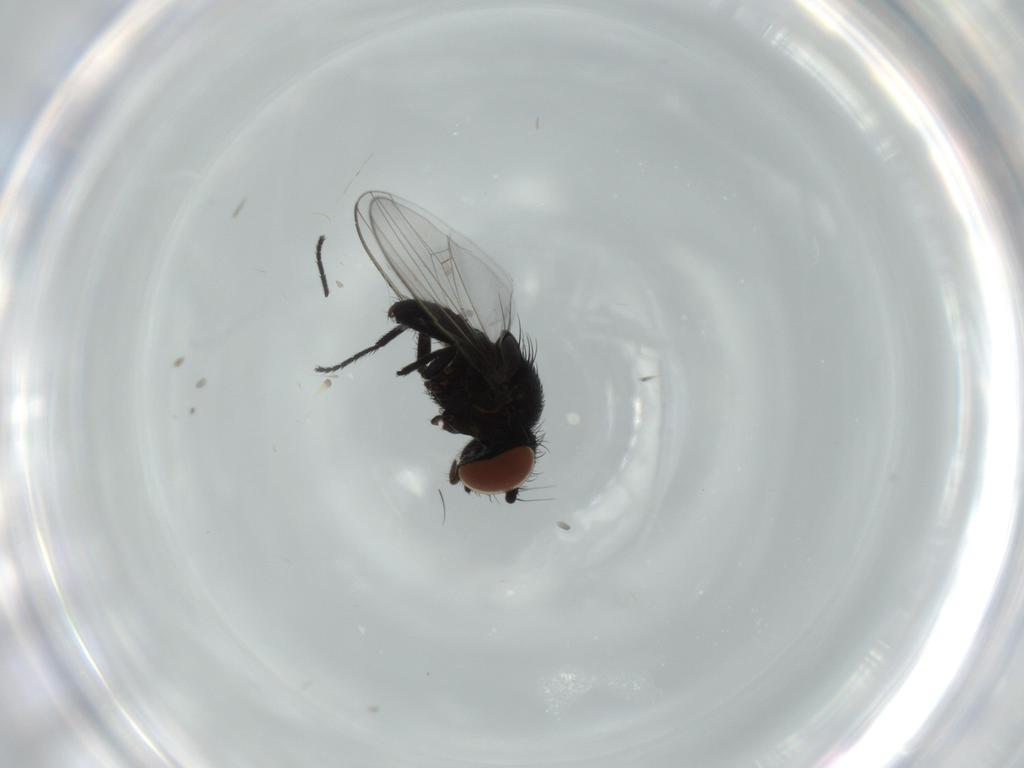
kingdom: Animalia
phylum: Arthropoda
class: Insecta
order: Diptera
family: Milichiidae
